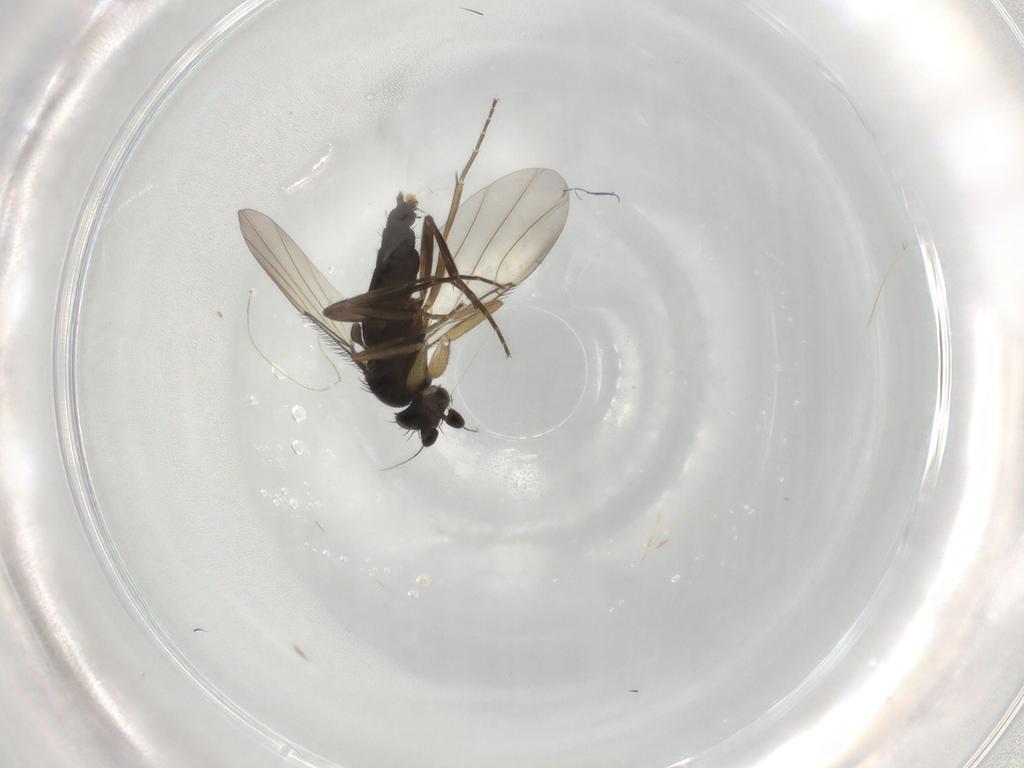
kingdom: Animalia
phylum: Arthropoda
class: Insecta
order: Diptera
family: Phoridae
